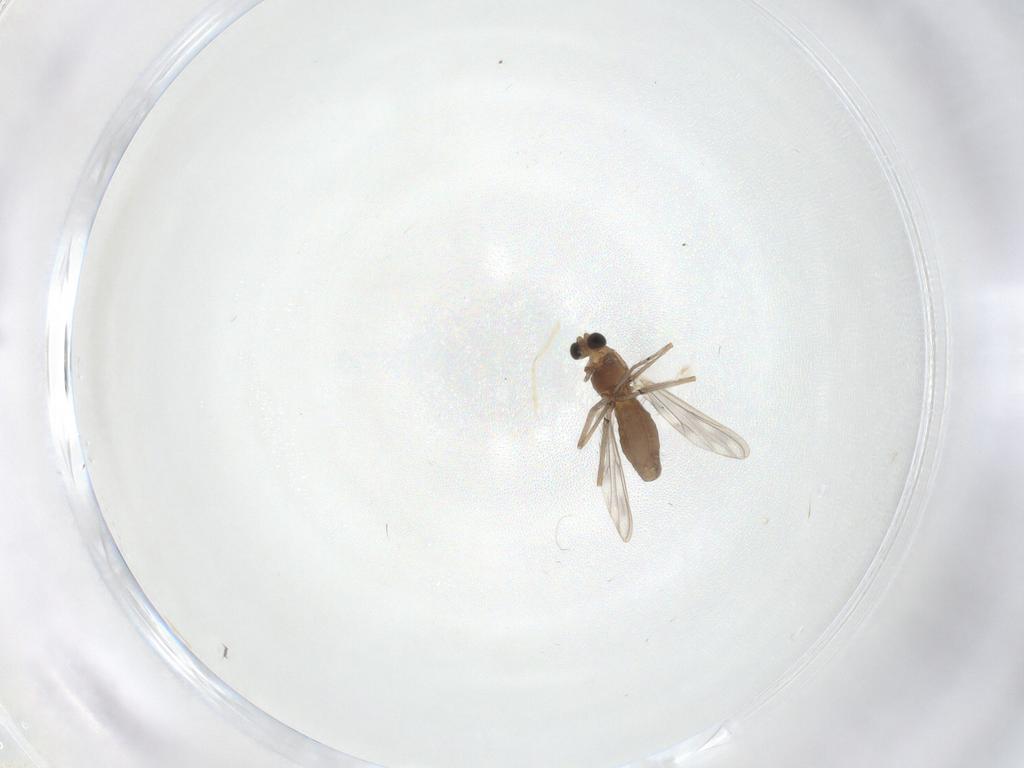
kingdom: Animalia
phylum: Arthropoda
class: Insecta
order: Diptera
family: Chironomidae
